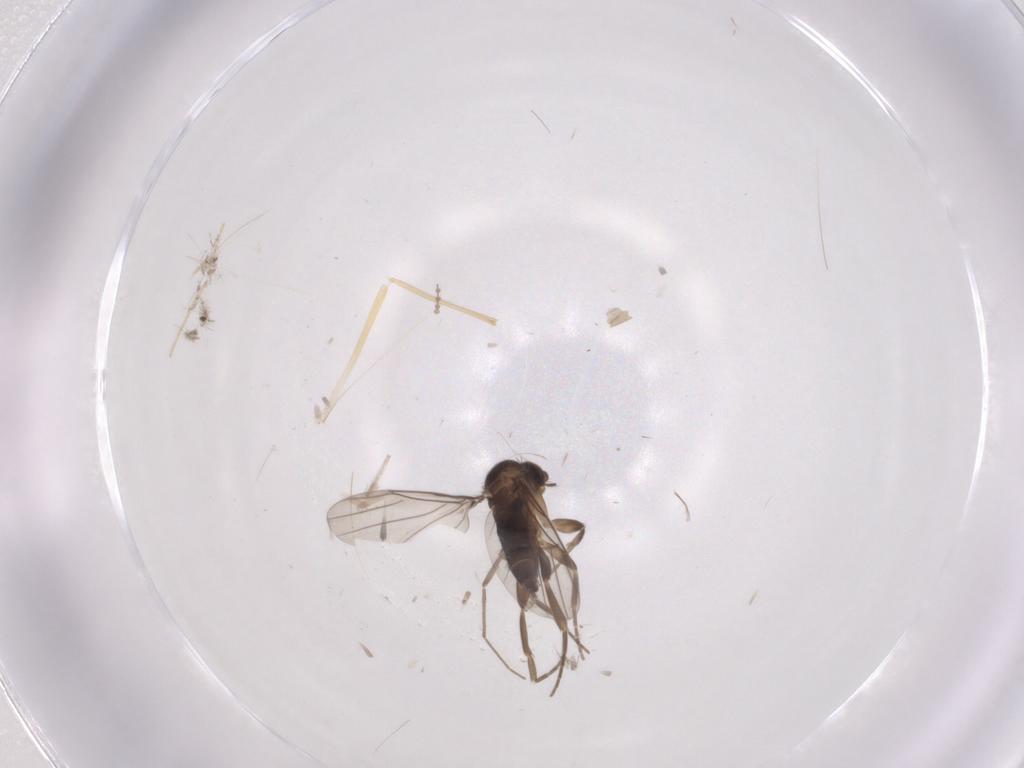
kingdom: Animalia
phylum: Arthropoda
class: Insecta
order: Diptera
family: Chironomidae
